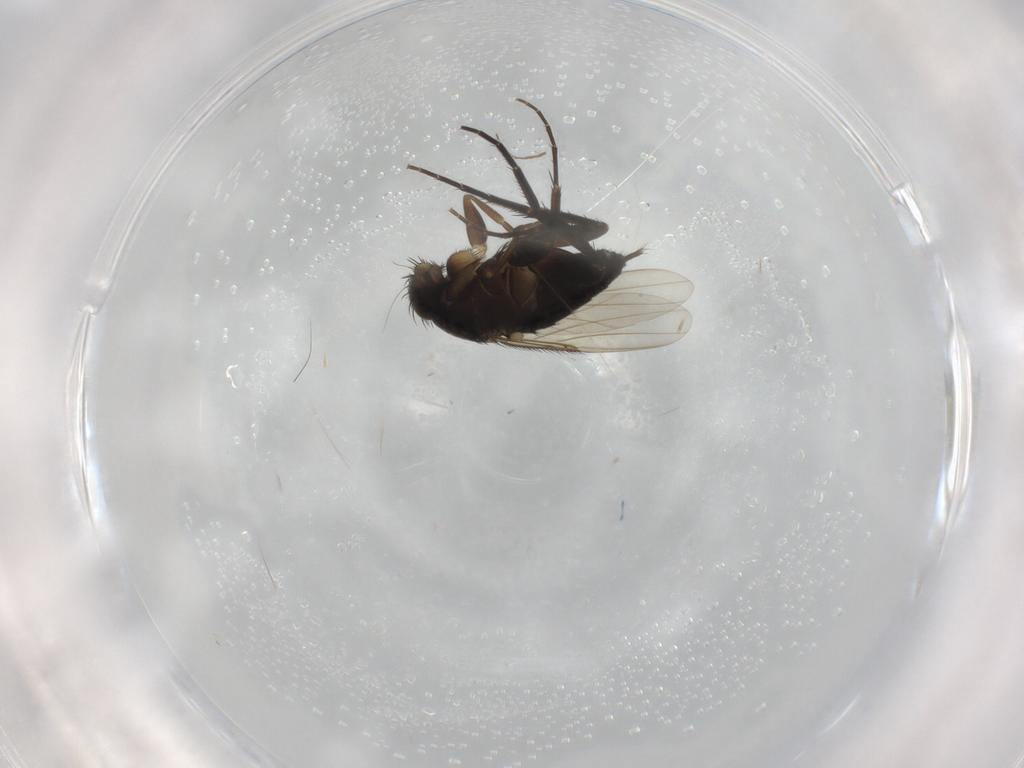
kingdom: Animalia
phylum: Arthropoda
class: Insecta
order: Diptera
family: Phoridae
